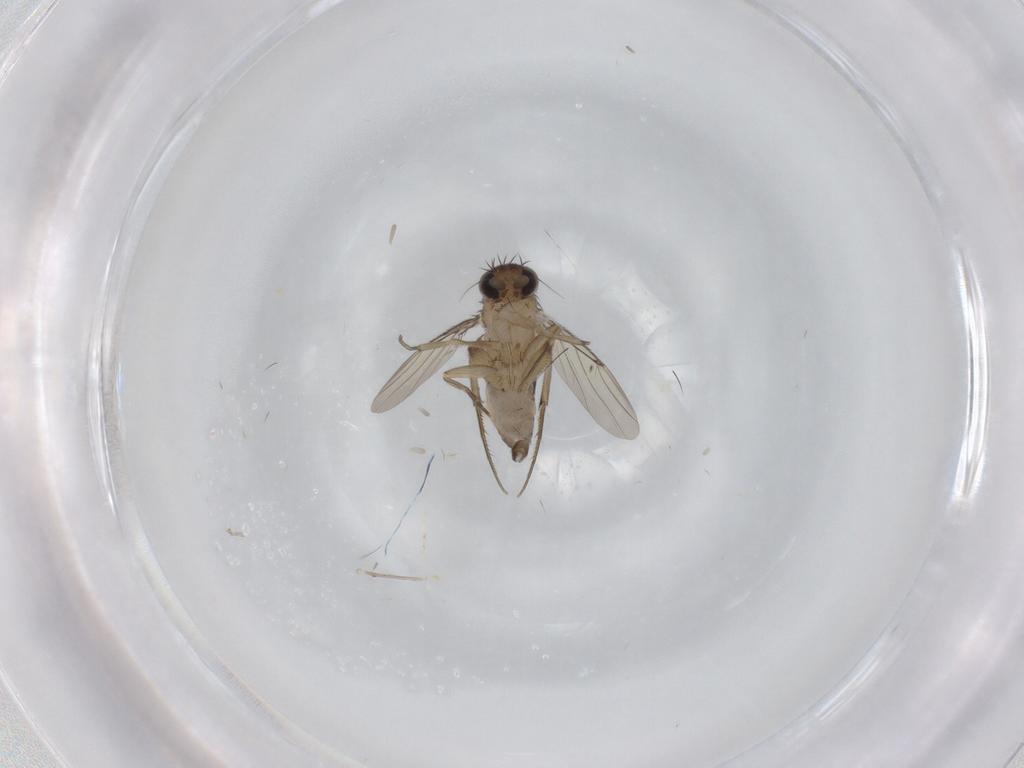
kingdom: Animalia
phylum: Arthropoda
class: Insecta
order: Diptera
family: Phoridae
